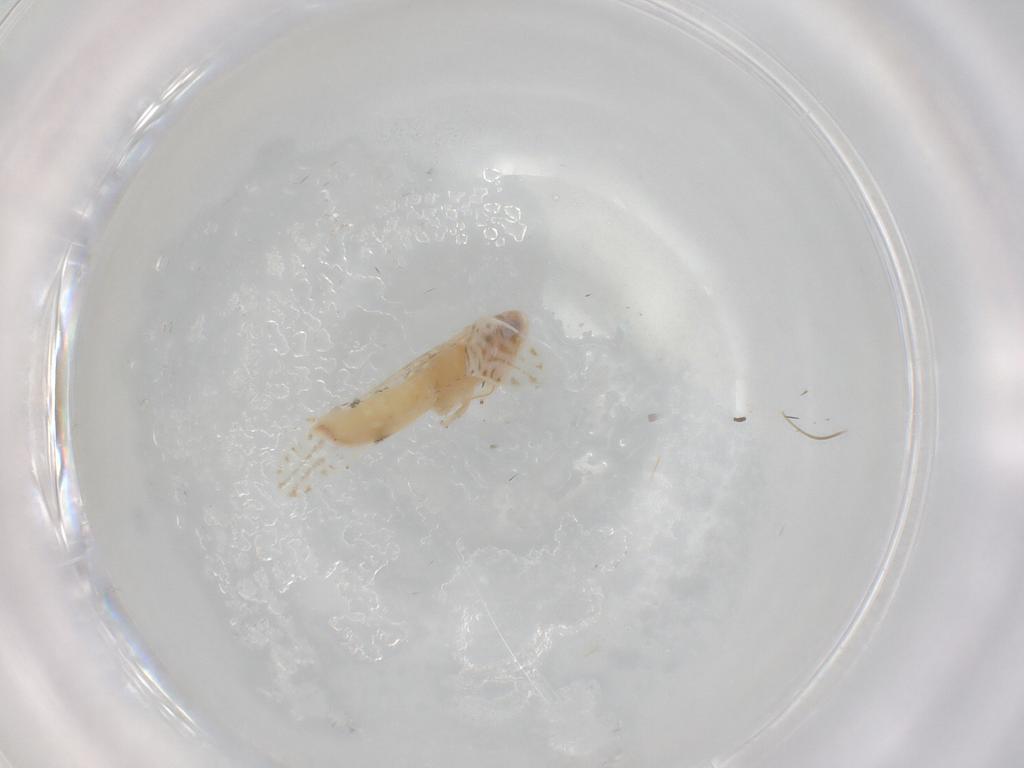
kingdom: Animalia
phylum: Arthropoda
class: Insecta
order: Hemiptera
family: Cicadellidae
